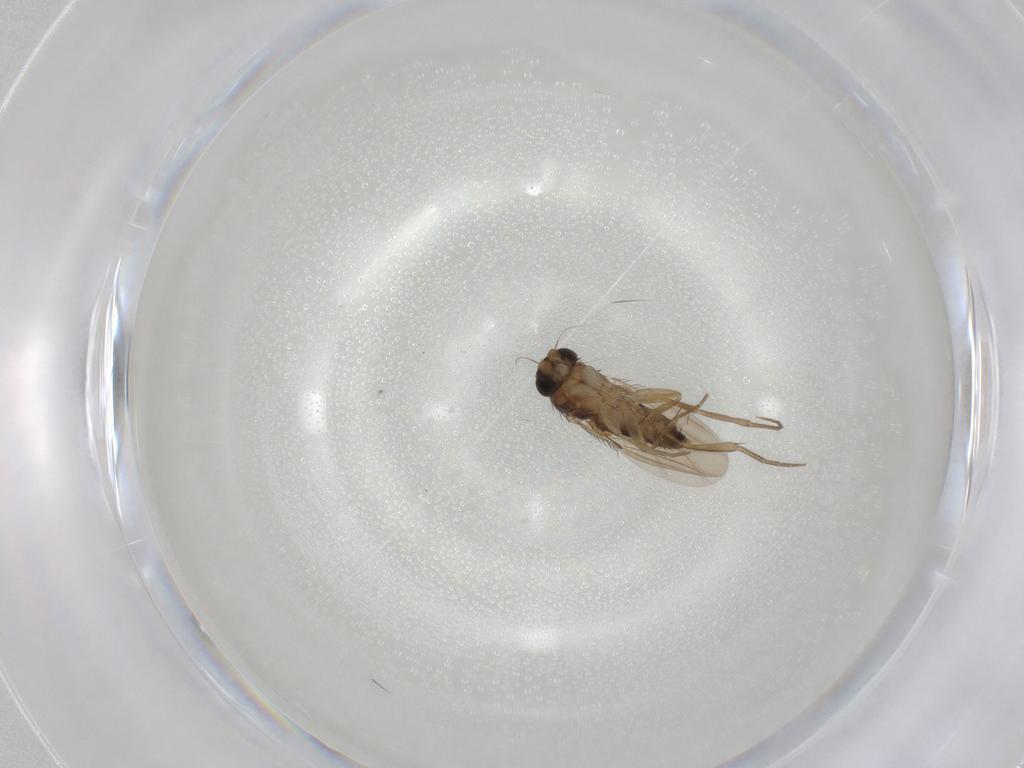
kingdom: Animalia
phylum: Arthropoda
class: Insecta
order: Diptera
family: Phoridae
